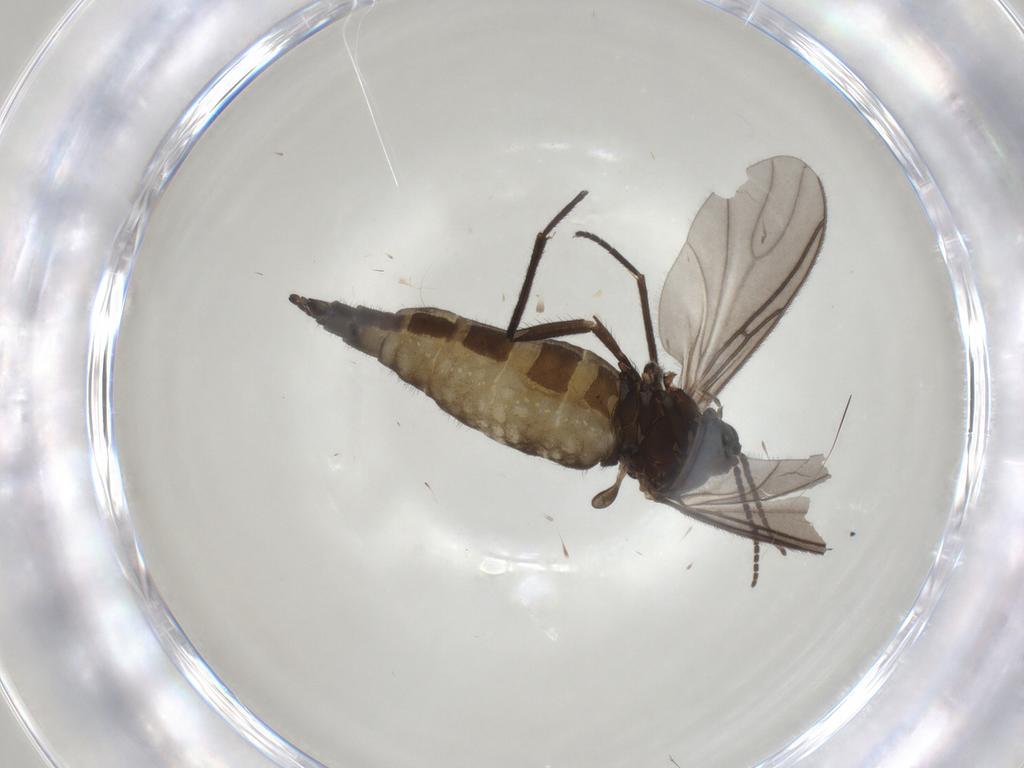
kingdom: Animalia
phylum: Arthropoda
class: Insecta
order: Diptera
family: Sciaridae
